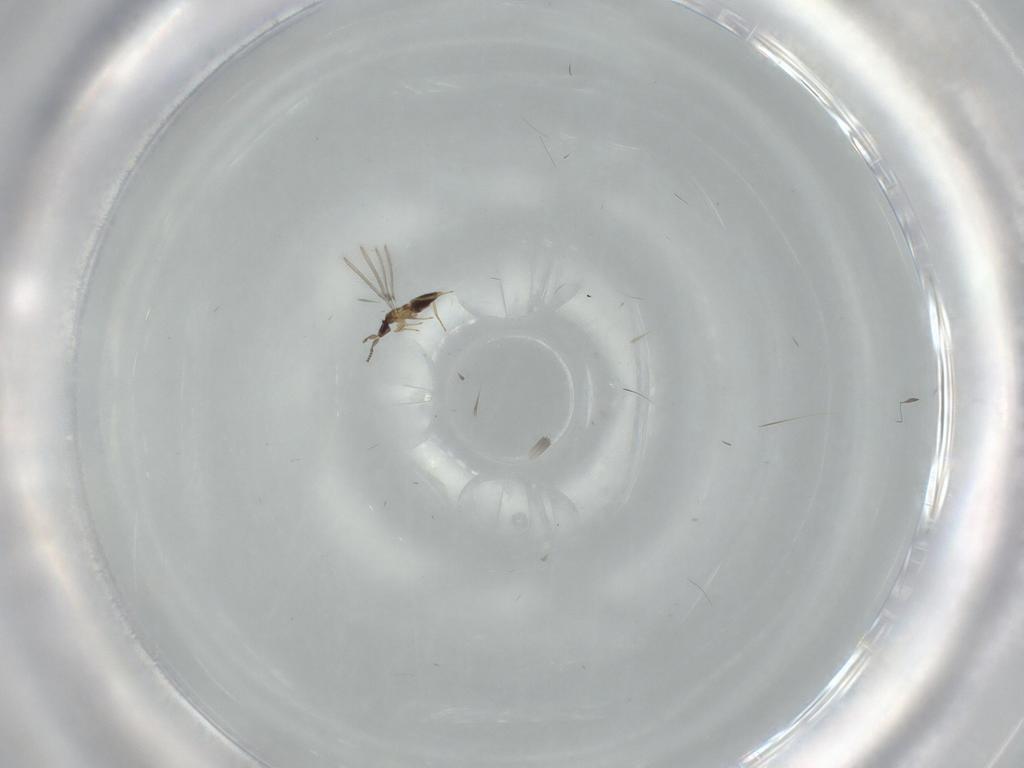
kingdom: Animalia
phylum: Arthropoda
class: Insecta
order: Hymenoptera
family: Mymaridae
